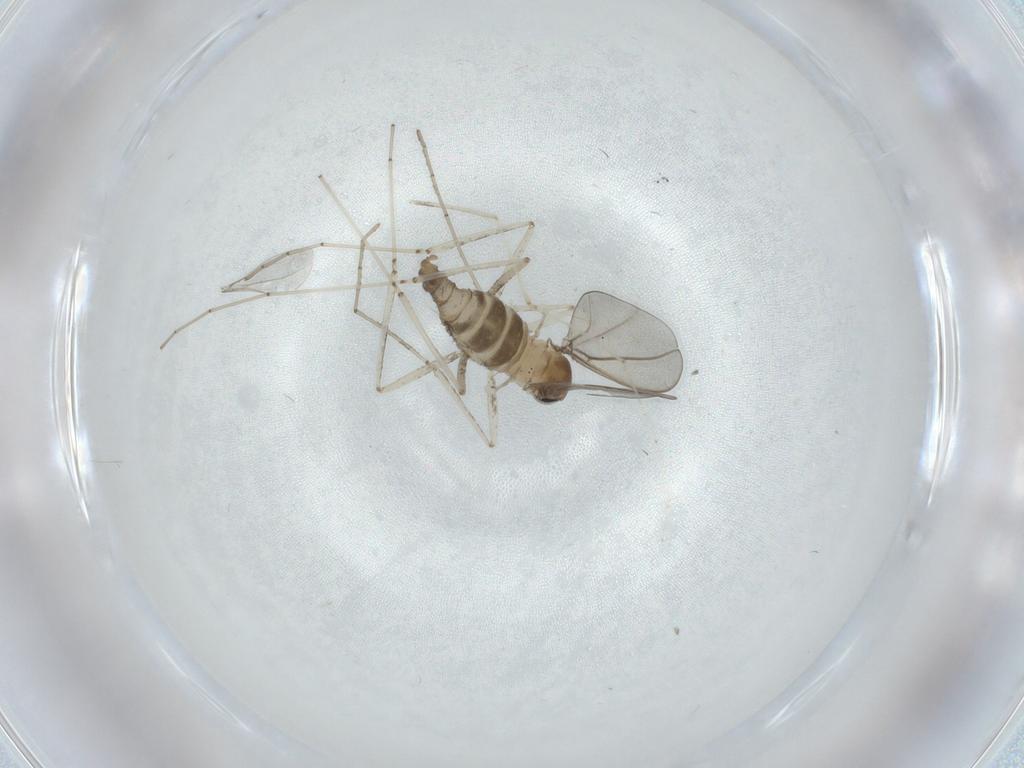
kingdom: Animalia
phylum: Arthropoda
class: Insecta
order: Diptera
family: Cecidomyiidae
